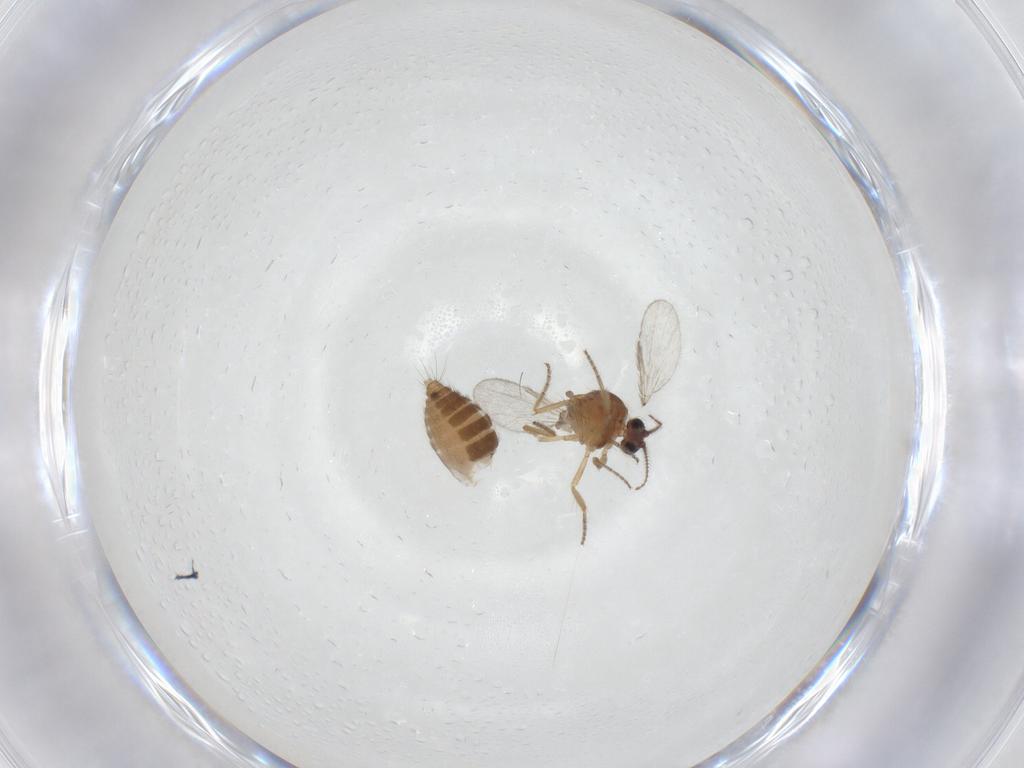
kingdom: Animalia
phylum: Arthropoda
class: Insecta
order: Diptera
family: Ceratopogonidae
